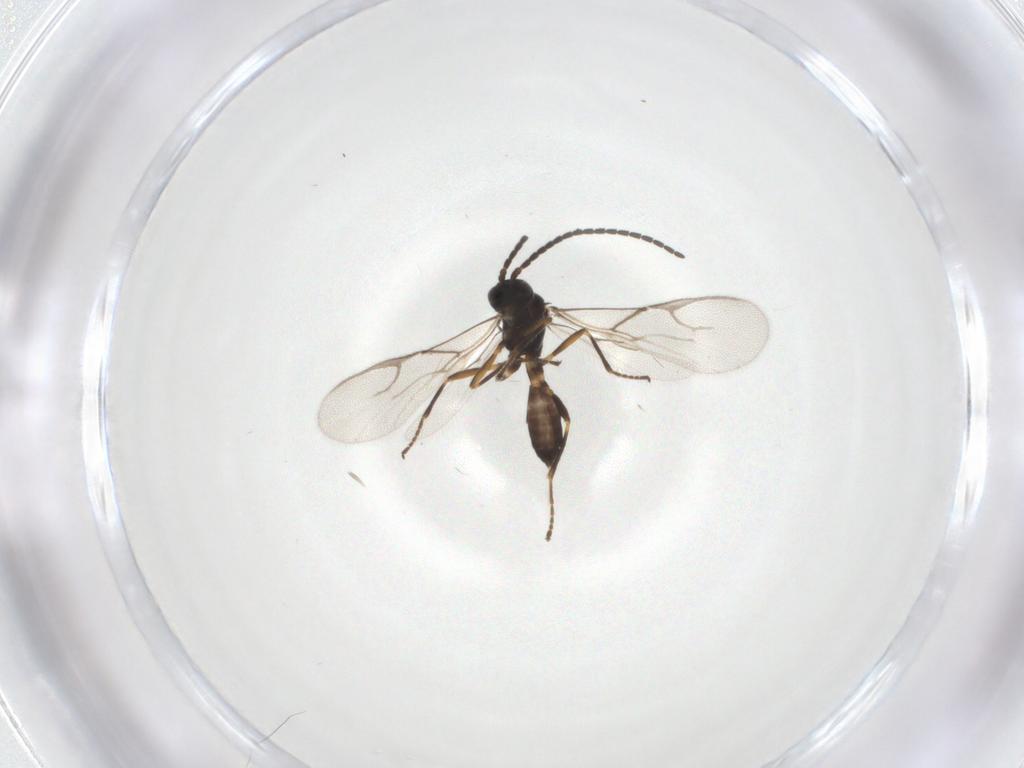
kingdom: Animalia
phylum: Arthropoda
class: Insecta
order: Hymenoptera
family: Braconidae
